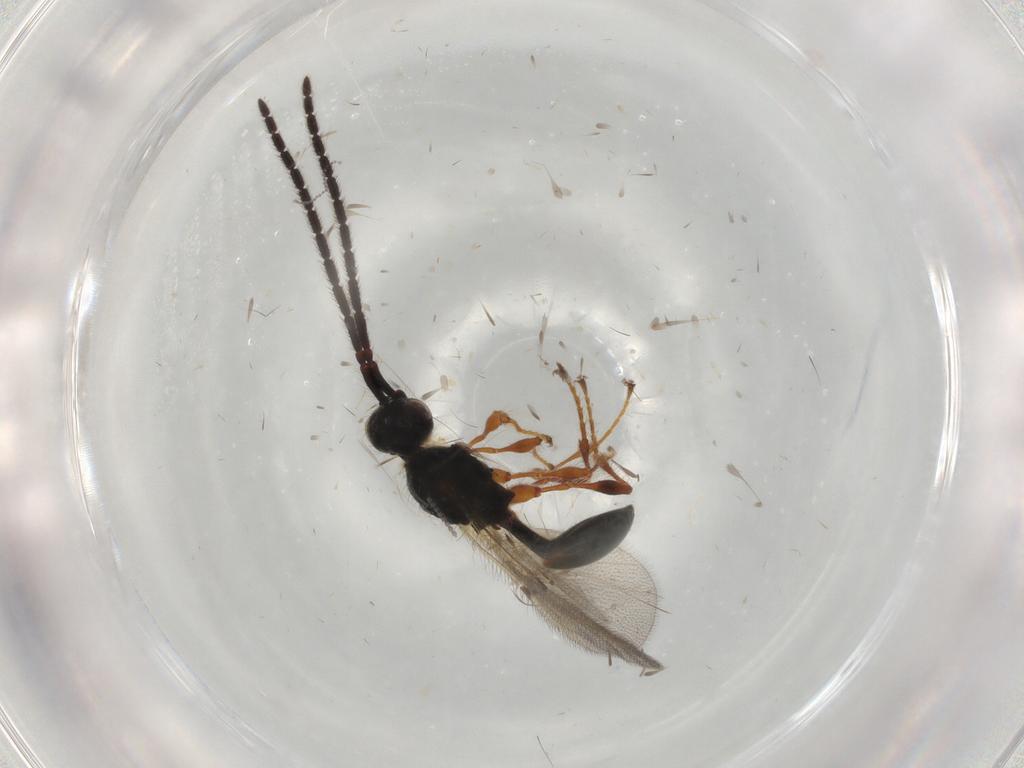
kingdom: Animalia
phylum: Arthropoda
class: Insecta
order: Hymenoptera
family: Diapriidae
